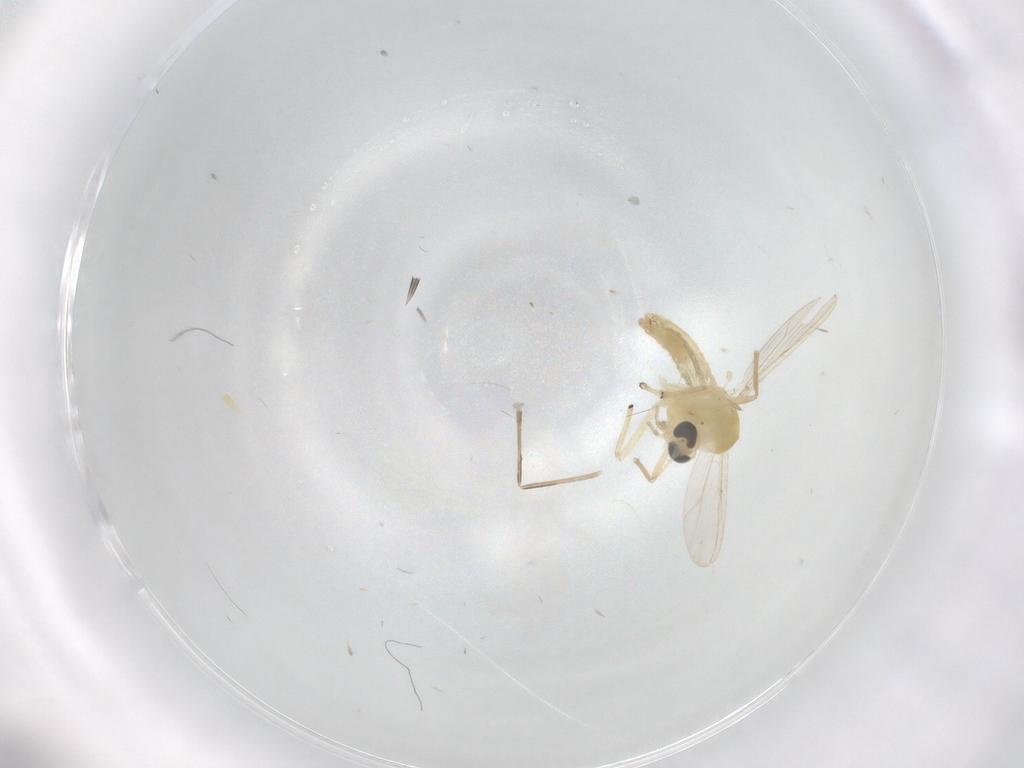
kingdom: Animalia
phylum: Arthropoda
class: Insecta
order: Diptera
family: Chironomidae
